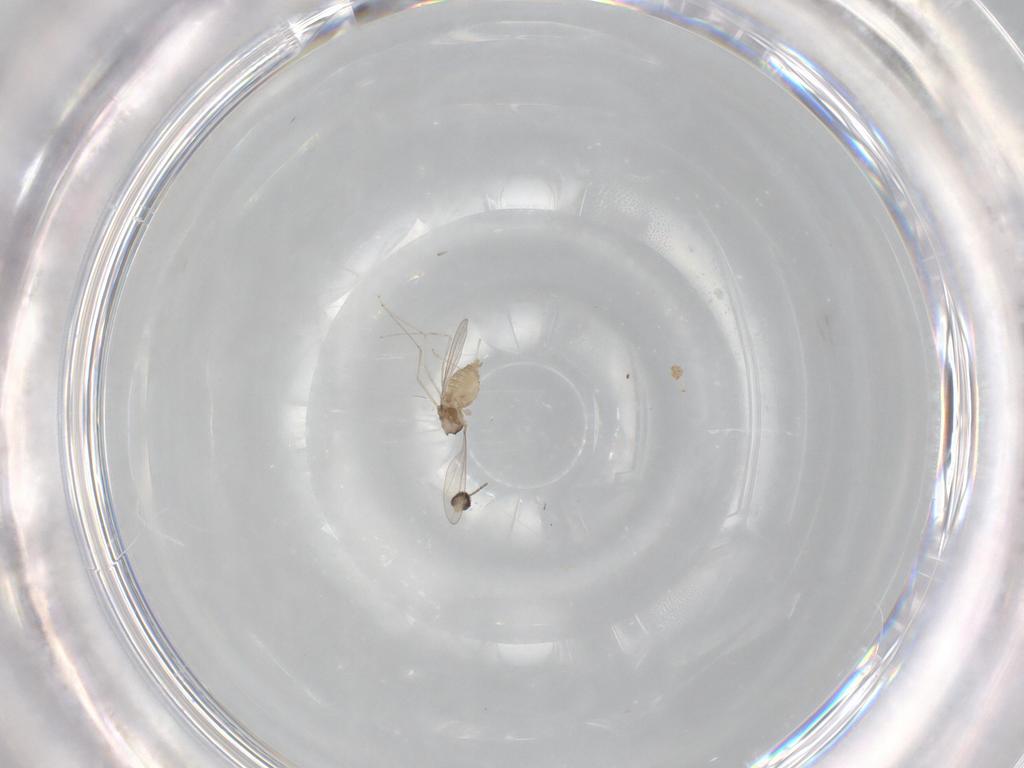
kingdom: Animalia
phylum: Arthropoda
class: Insecta
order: Diptera
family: Cecidomyiidae
